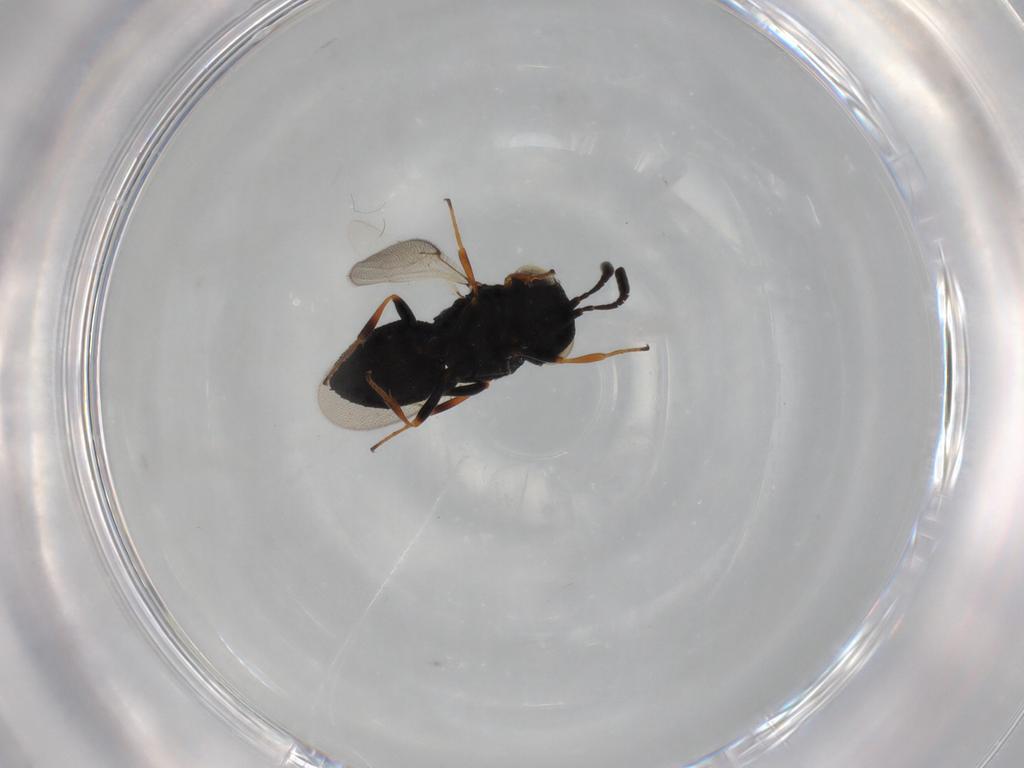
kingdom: Animalia
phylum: Arthropoda
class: Insecta
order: Hymenoptera
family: Scelionidae
